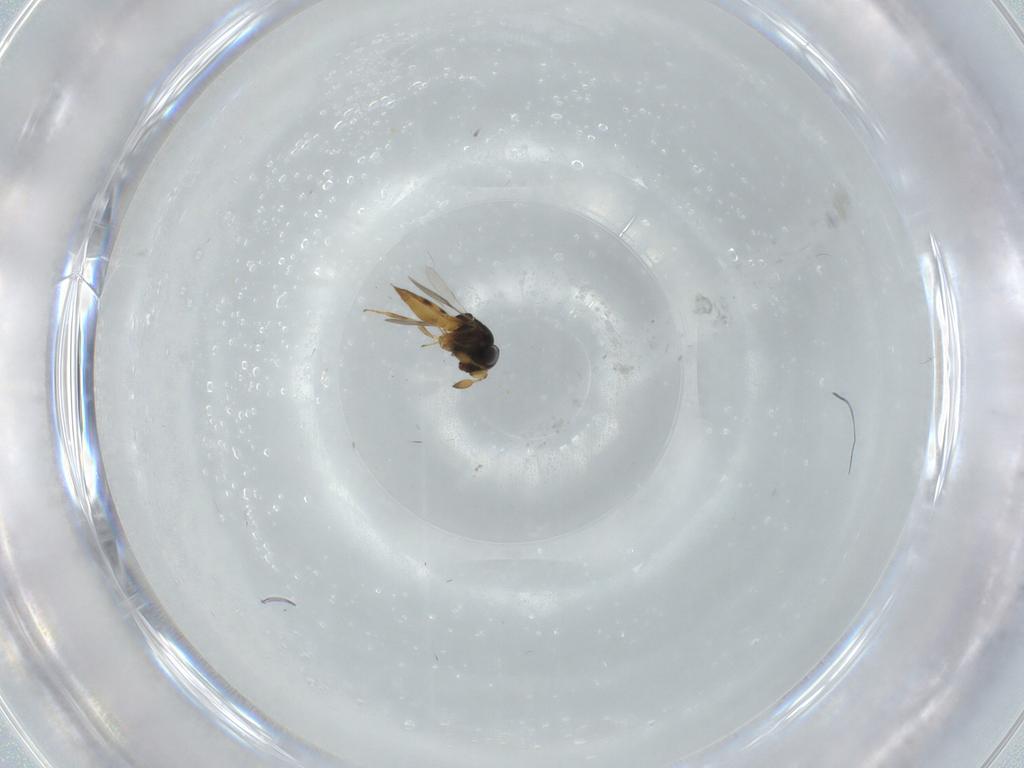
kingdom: Animalia
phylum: Arthropoda
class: Arachnida
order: Araneae
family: Pholcidae
